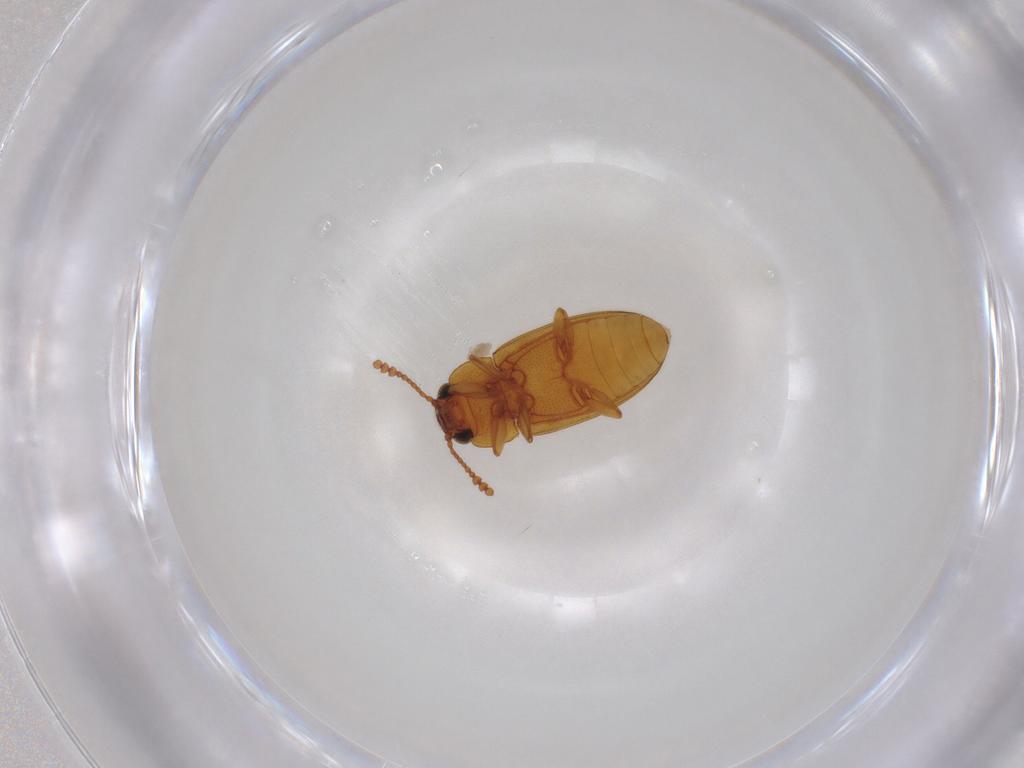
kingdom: Animalia
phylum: Arthropoda
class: Insecta
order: Coleoptera
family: Erotylidae
